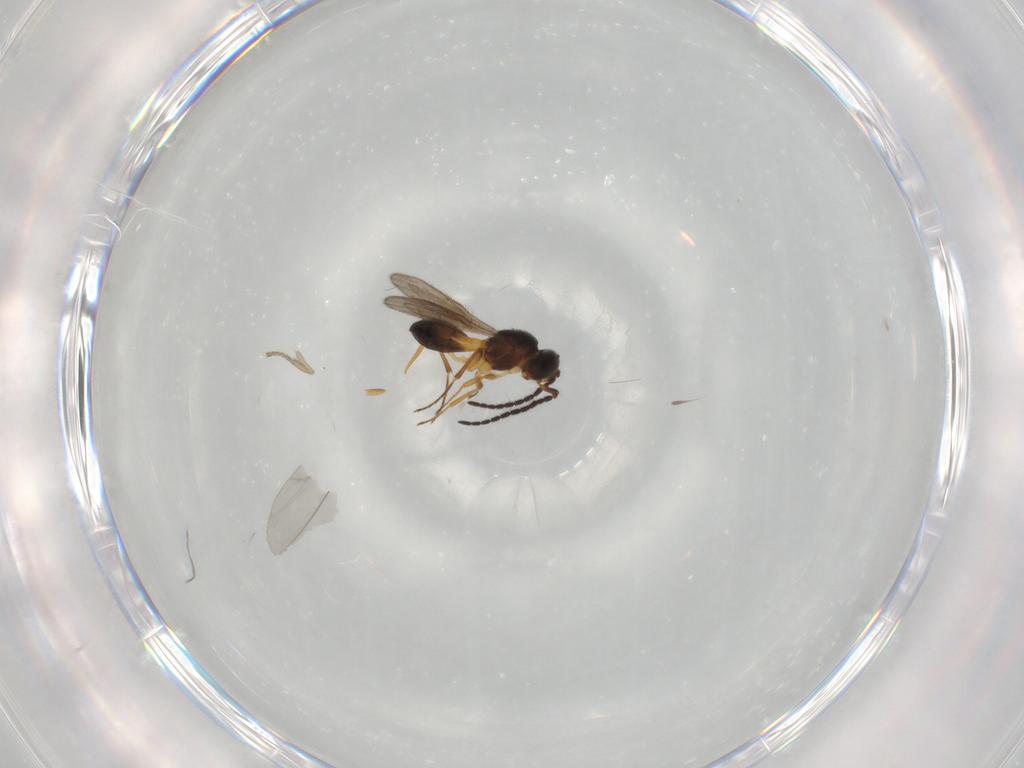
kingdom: Animalia
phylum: Arthropoda
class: Insecta
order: Hymenoptera
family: Scelionidae
